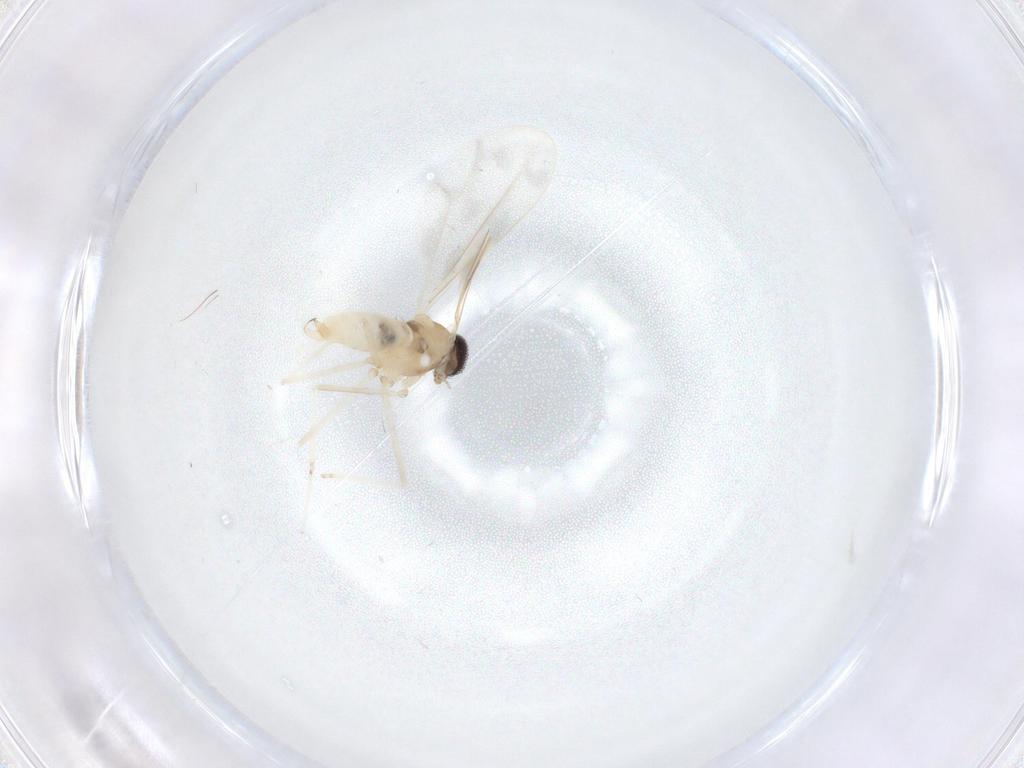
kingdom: Animalia
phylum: Arthropoda
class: Insecta
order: Diptera
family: Cecidomyiidae
